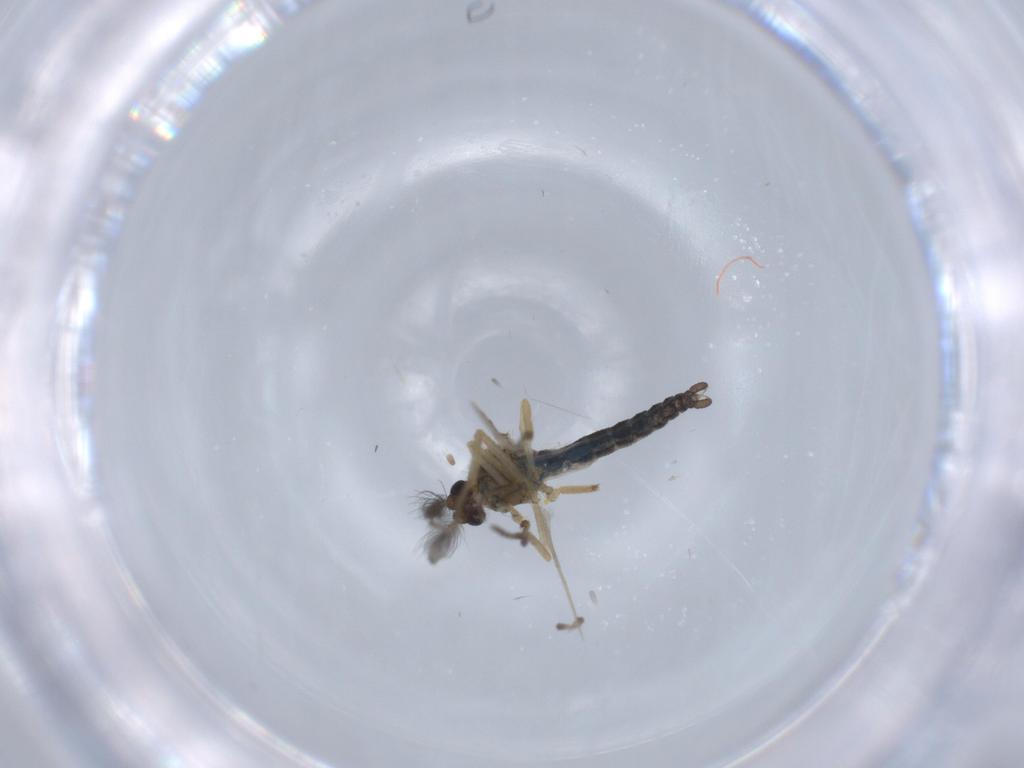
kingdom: Animalia
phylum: Arthropoda
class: Insecta
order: Diptera
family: Ceratopogonidae
